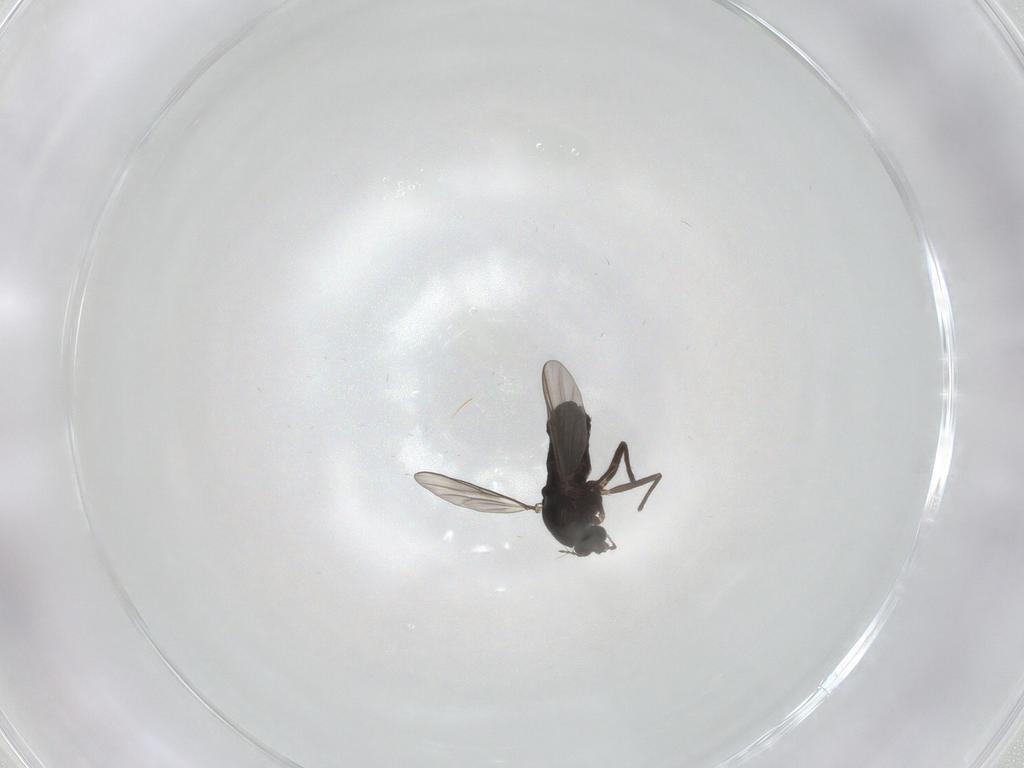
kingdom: Animalia
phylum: Arthropoda
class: Insecta
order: Diptera
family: Chironomidae
